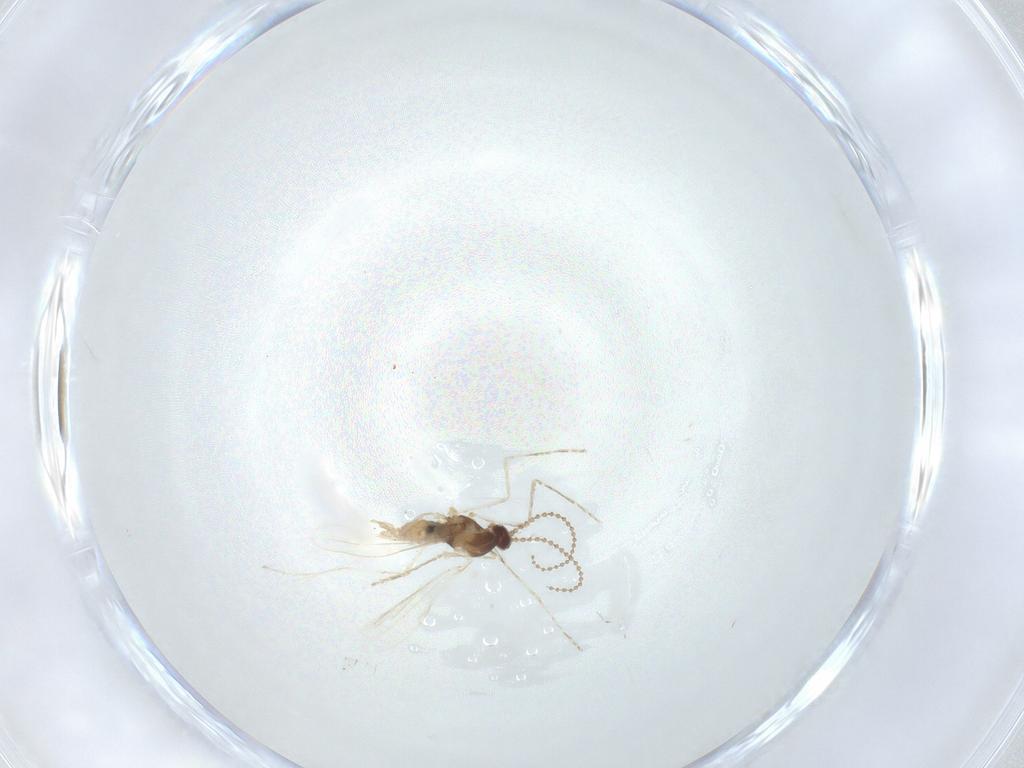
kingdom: Animalia
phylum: Arthropoda
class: Insecta
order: Diptera
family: Cecidomyiidae
